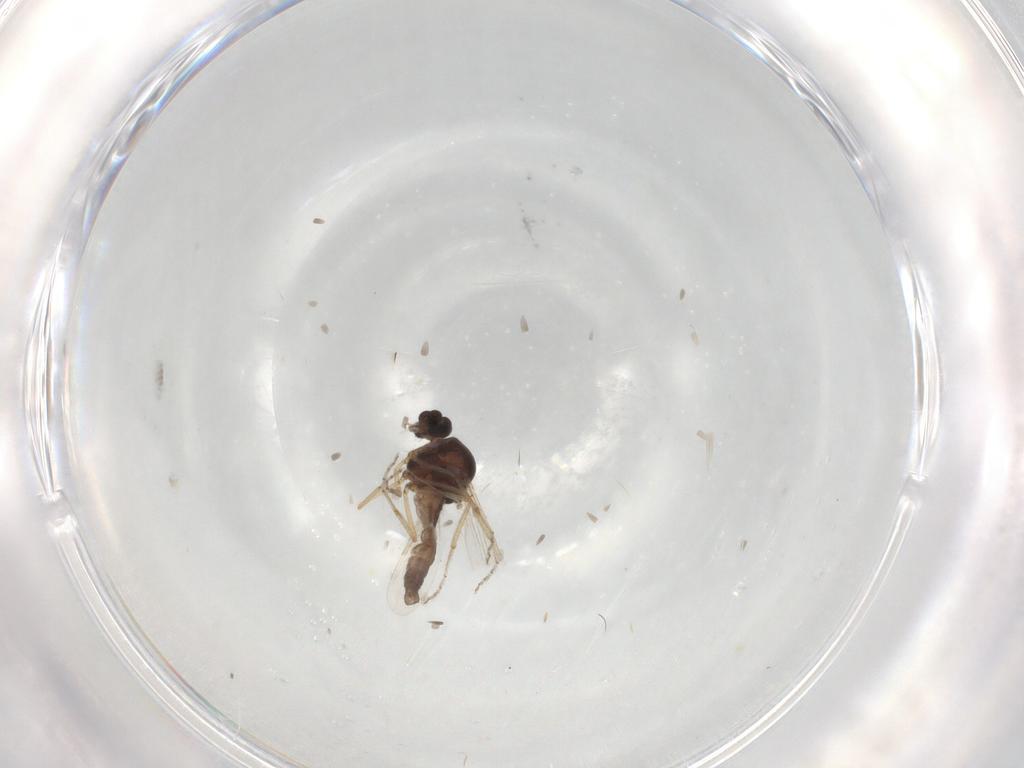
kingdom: Animalia
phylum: Arthropoda
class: Insecta
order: Diptera
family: Ceratopogonidae
